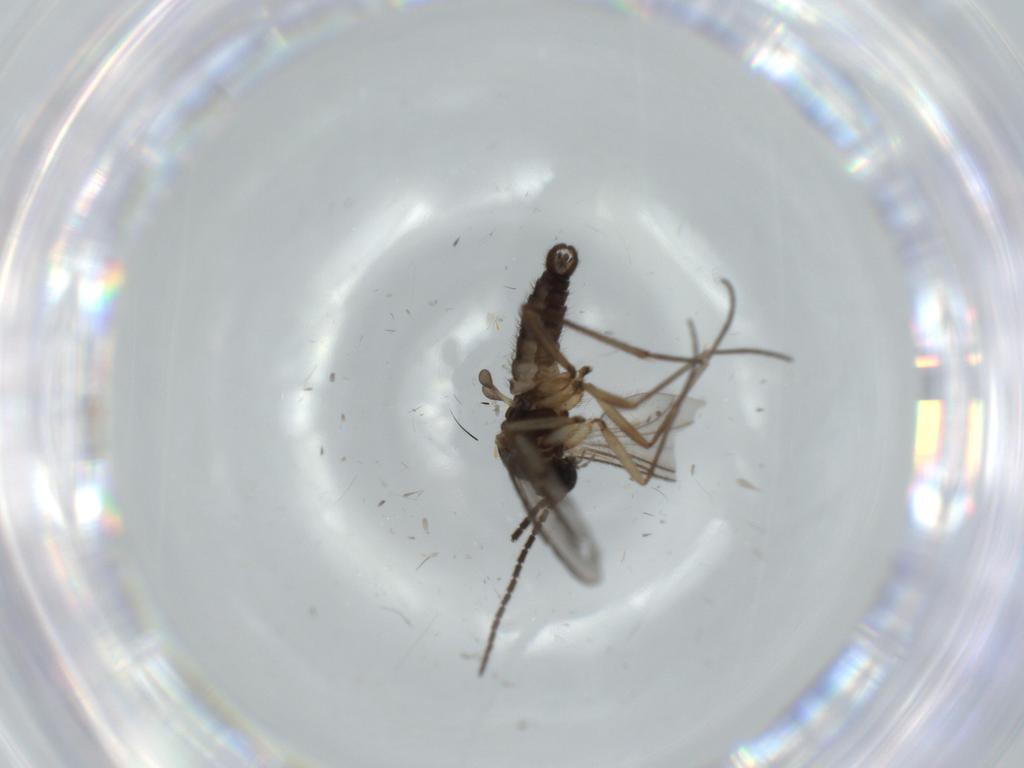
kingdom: Animalia
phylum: Arthropoda
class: Insecta
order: Diptera
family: Sciaridae
